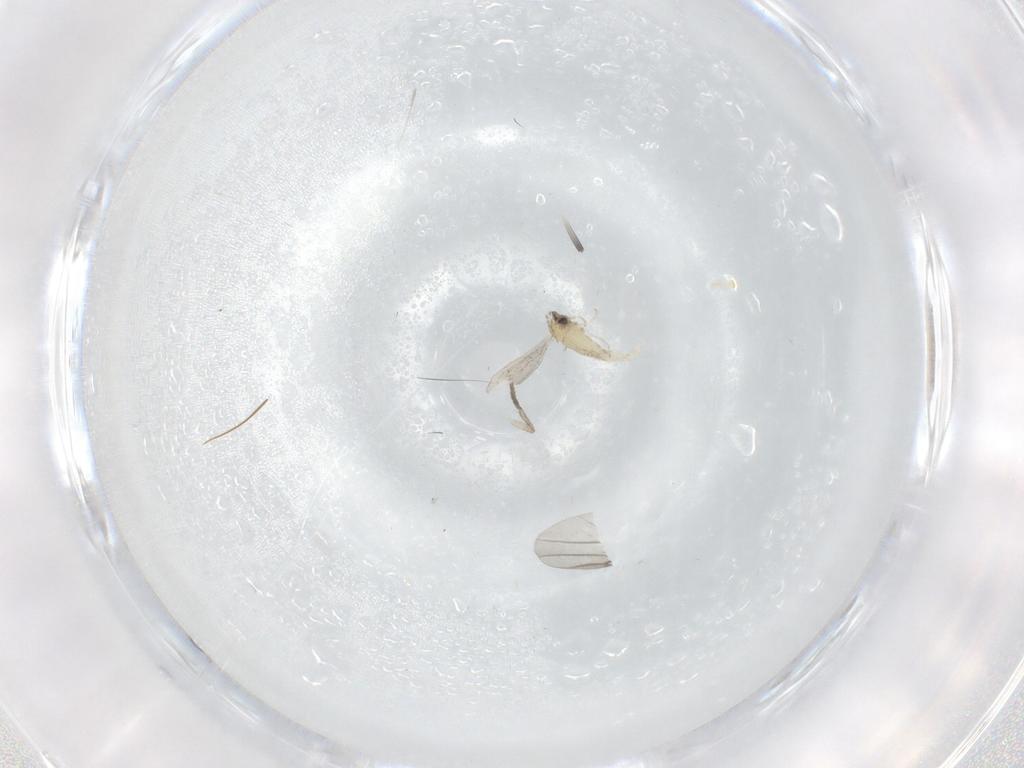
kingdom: Animalia
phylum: Arthropoda
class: Insecta
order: Diptera
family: Mycetophilidae
